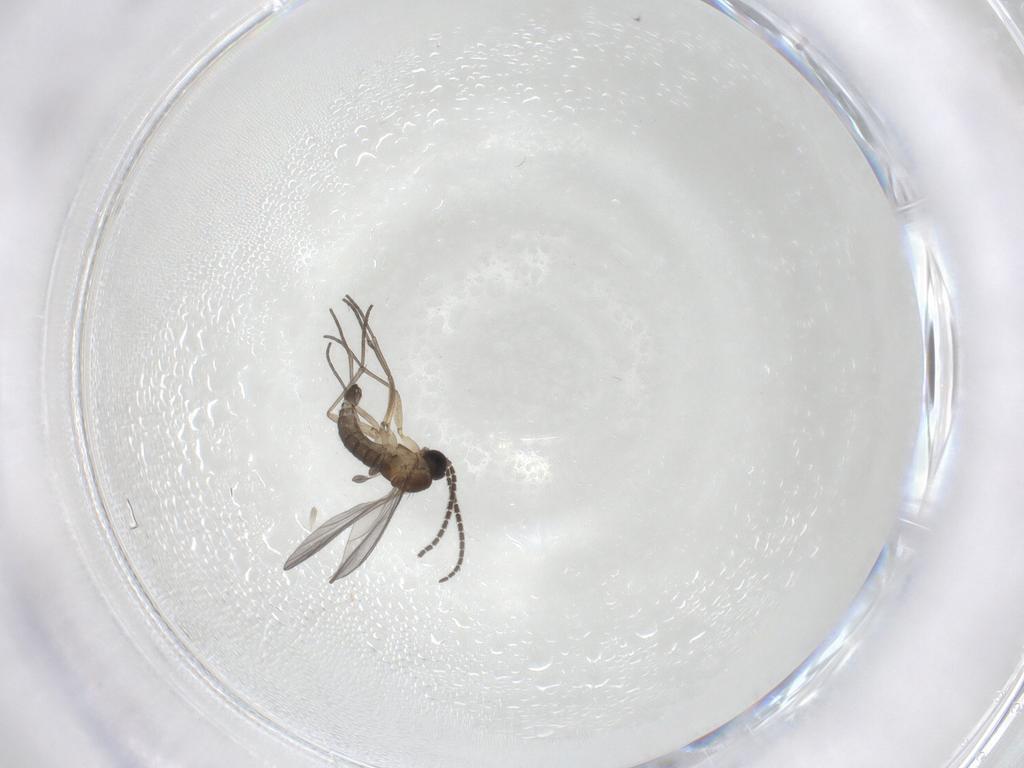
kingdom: Animalia
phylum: Arthropoda
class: Insecta
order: Diptera
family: Sciaridae
